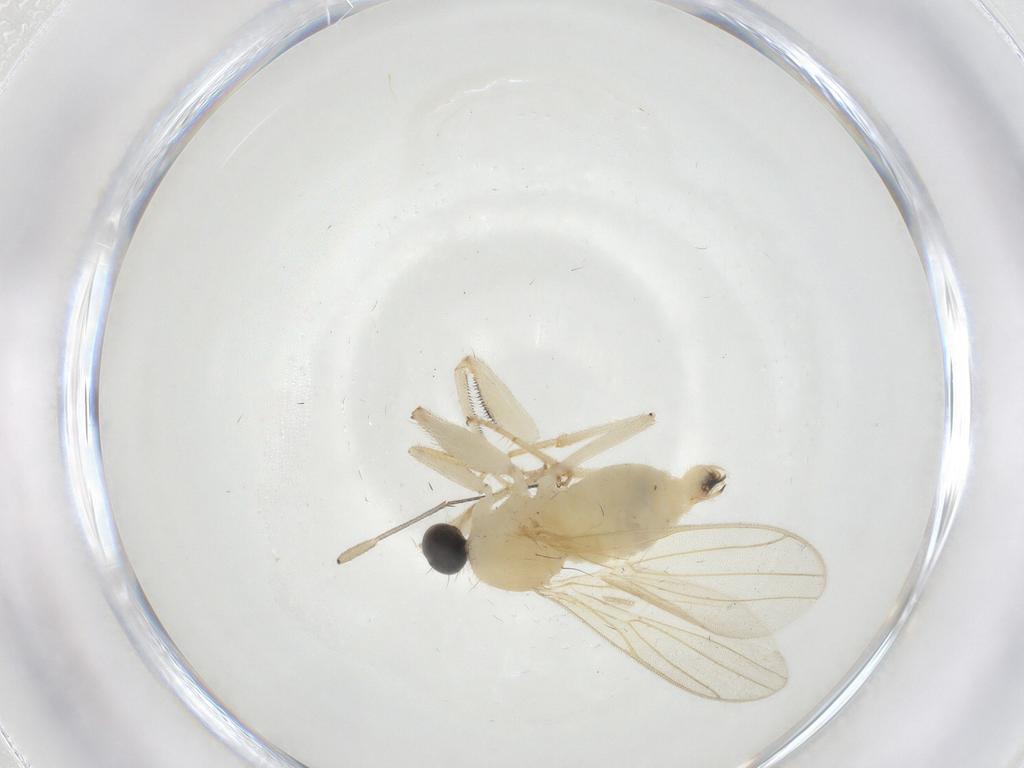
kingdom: Animalia
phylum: Arthropoda
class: Insecta
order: Diptera
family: Hybotidae
